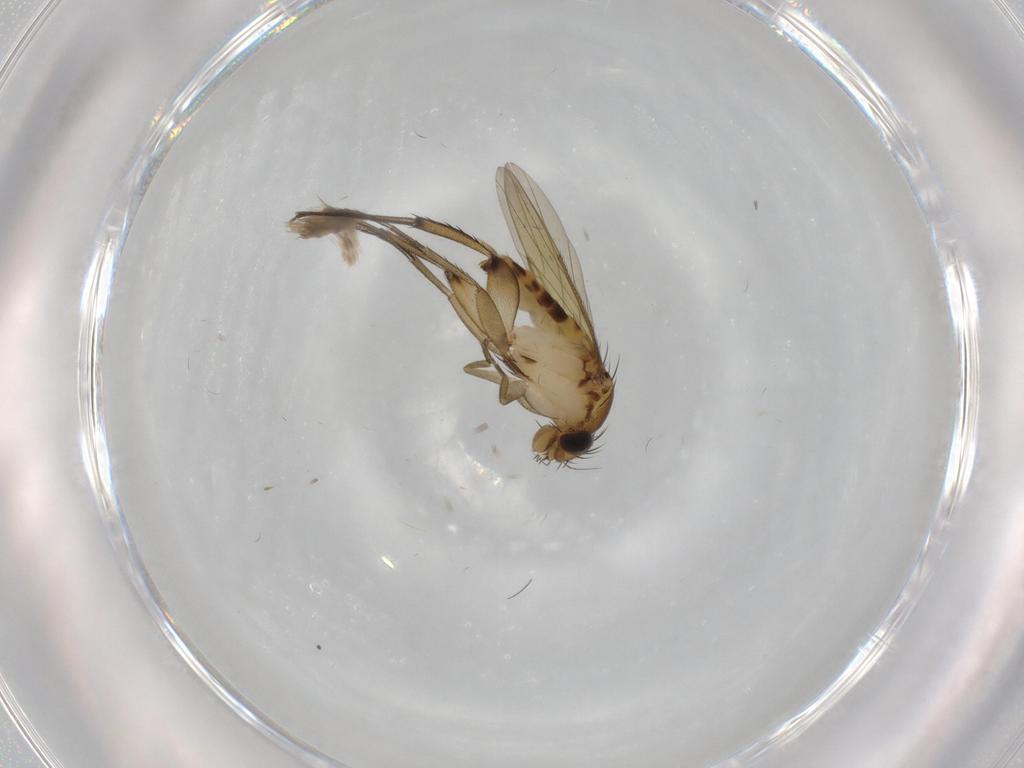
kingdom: Animalia
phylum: Arthropoda
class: Insecta
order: Diptera
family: Phoridae
